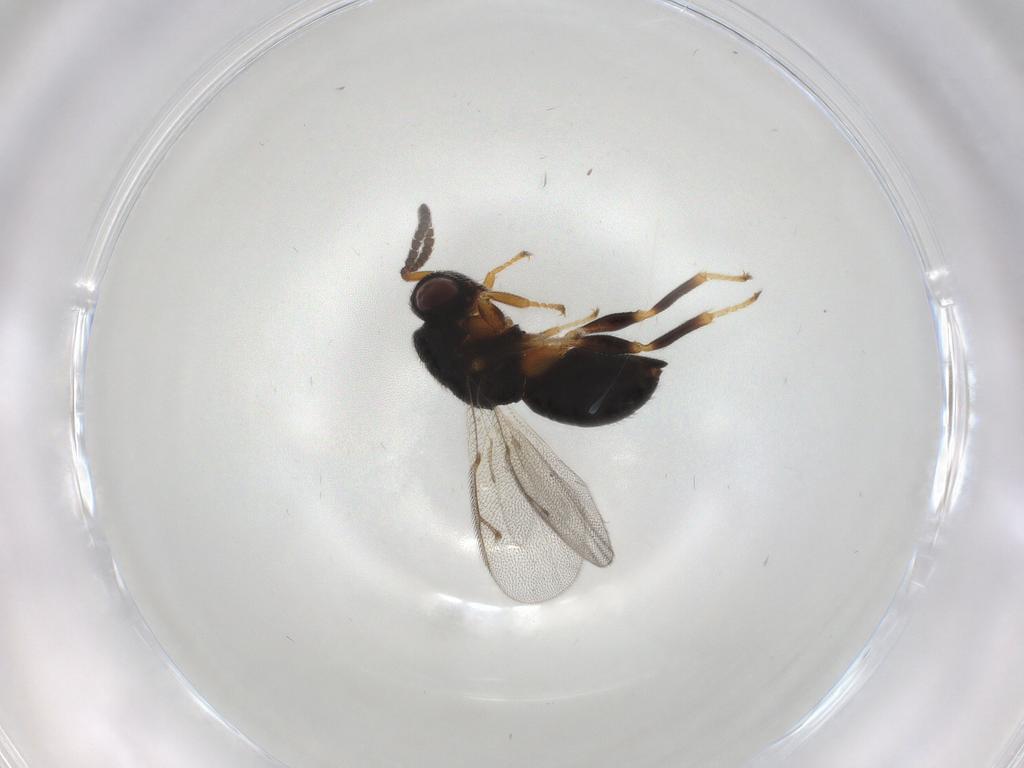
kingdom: Animalia
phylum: Arthropoda
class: Insecta
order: Hymenoptera
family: Eurytomidae
